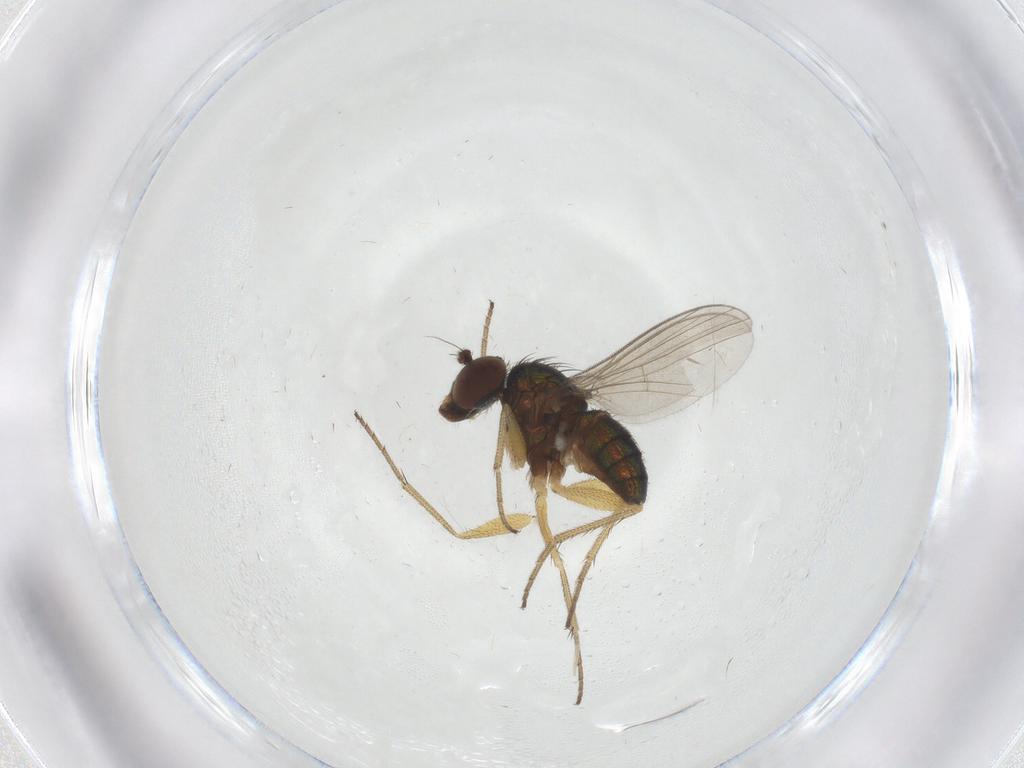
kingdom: Animalia
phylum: Arthropoda
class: Insecta
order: Diptera
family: Dolichopodidae
